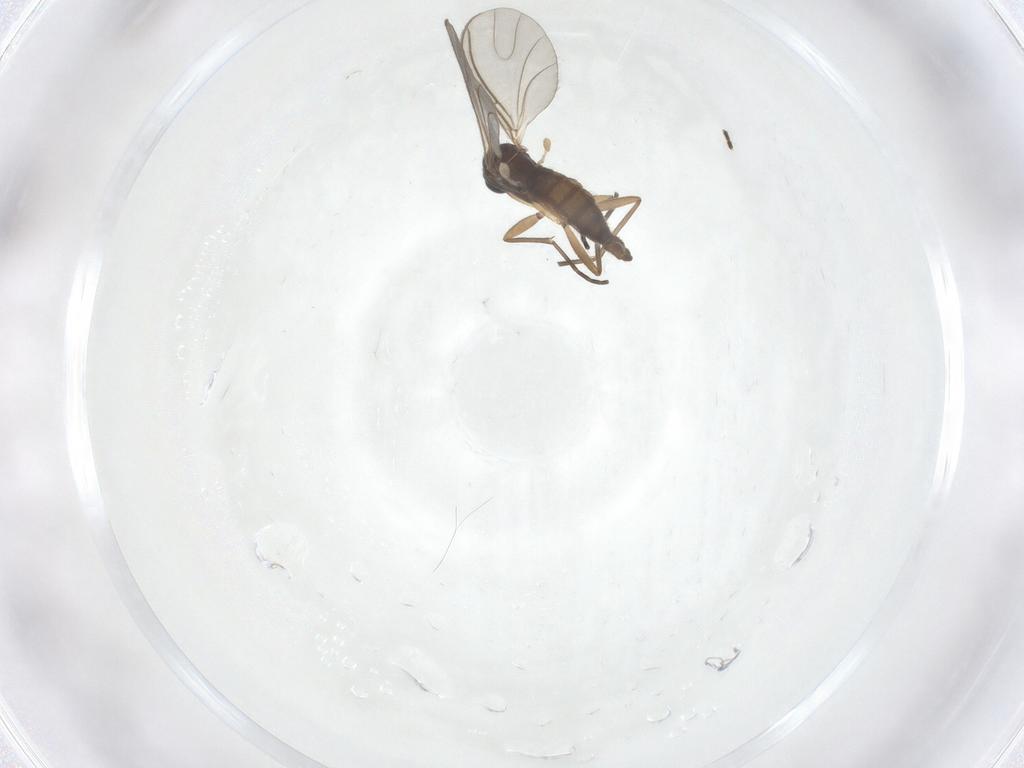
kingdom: Animalia
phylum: Arthropoda
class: Insecta
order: Diptera
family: Sciaridae
